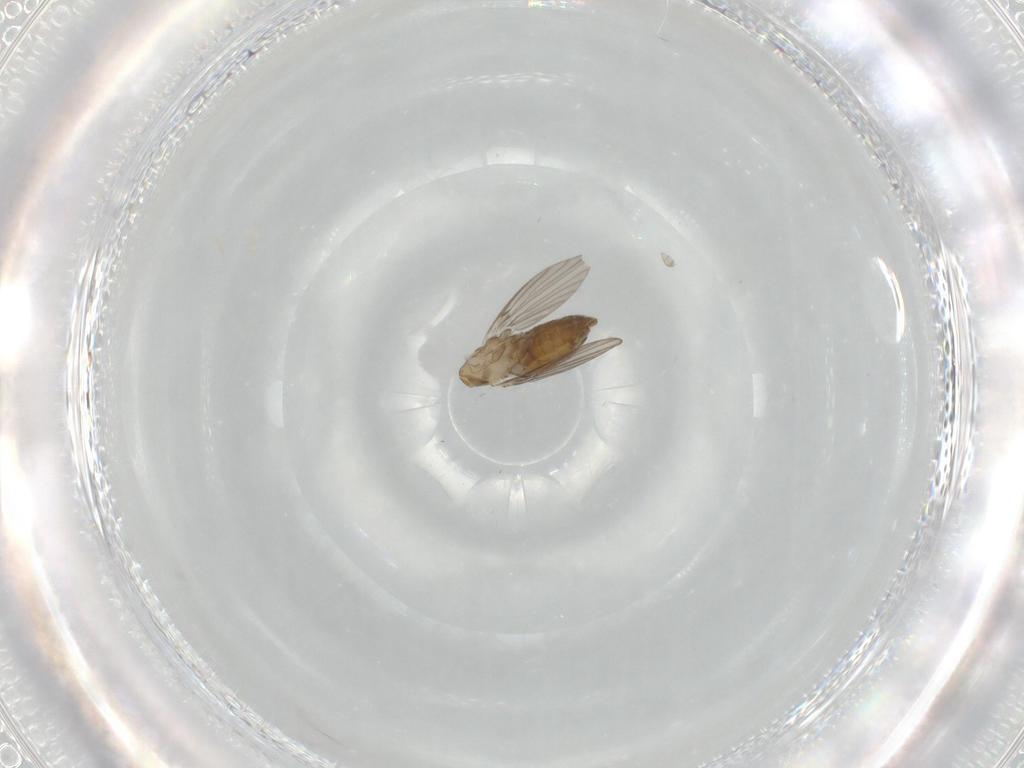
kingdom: Animalia
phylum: Arthropoda
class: Insecta
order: Diptera
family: Psychodidae
